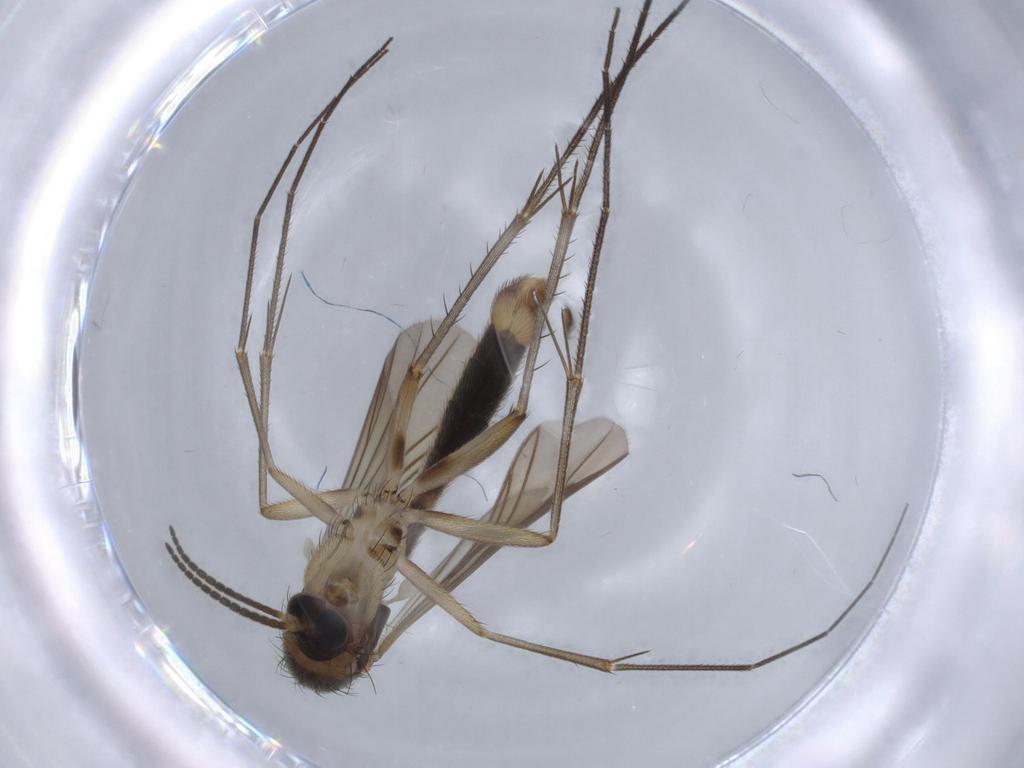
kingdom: Animalia
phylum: Arthropoda
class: Insecta
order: Diptera
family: Mycetophilidae
